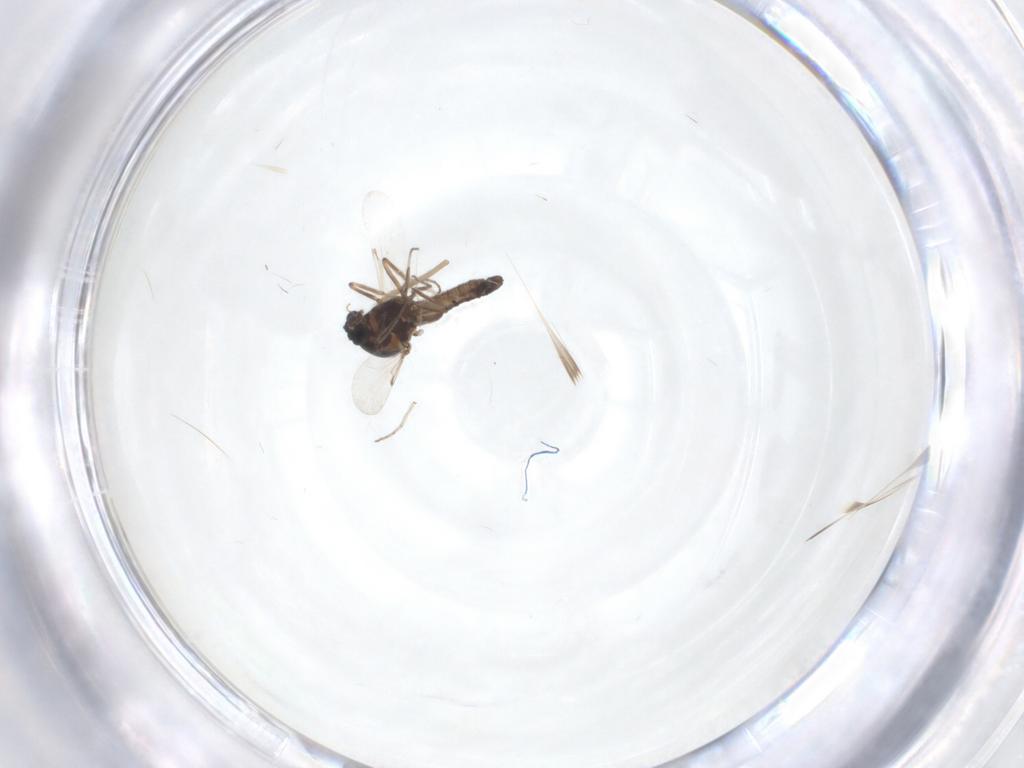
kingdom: Animalia
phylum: Arthropoda
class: Insecta
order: Diptera
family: Ceratopogonidae
